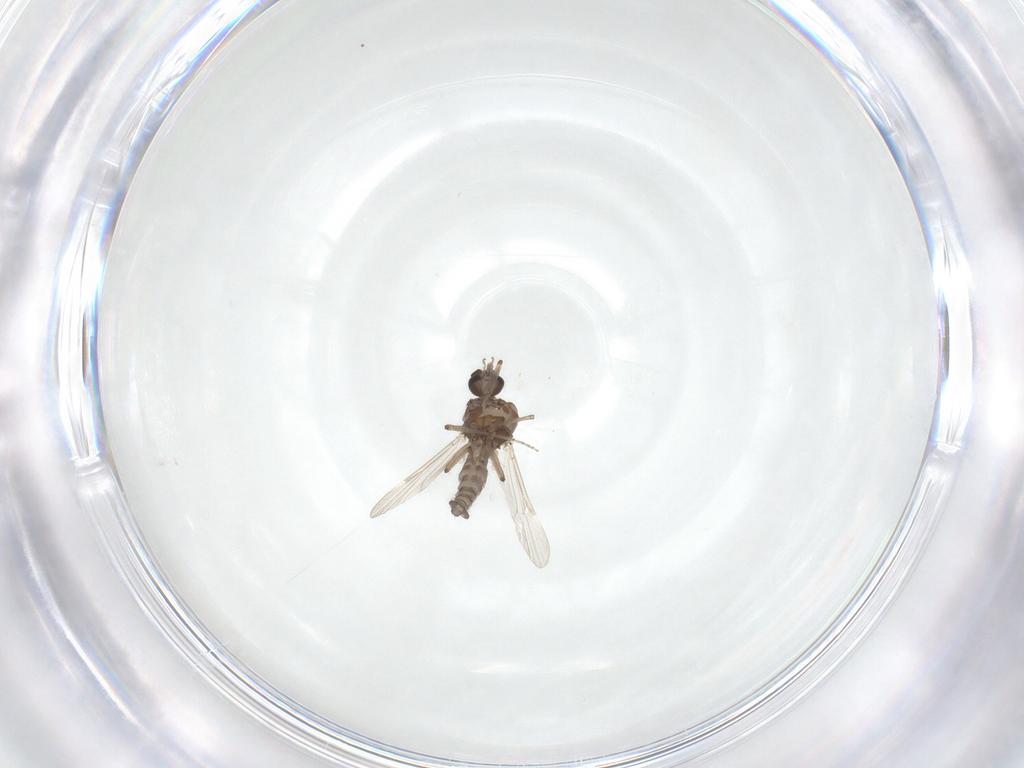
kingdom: Animalia
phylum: Arthropoda
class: Insecta
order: Diptera
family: Ceratopogonidae
